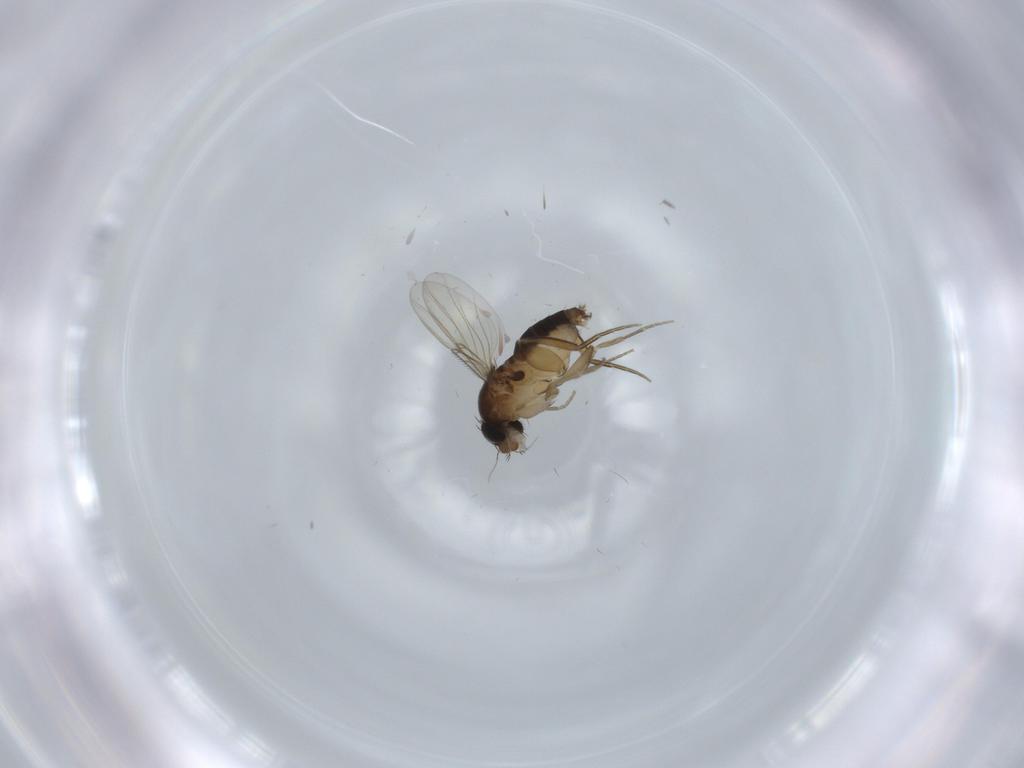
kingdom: Animalia
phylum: Arthropoda
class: Insecta
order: Diptera
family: Phoridae
